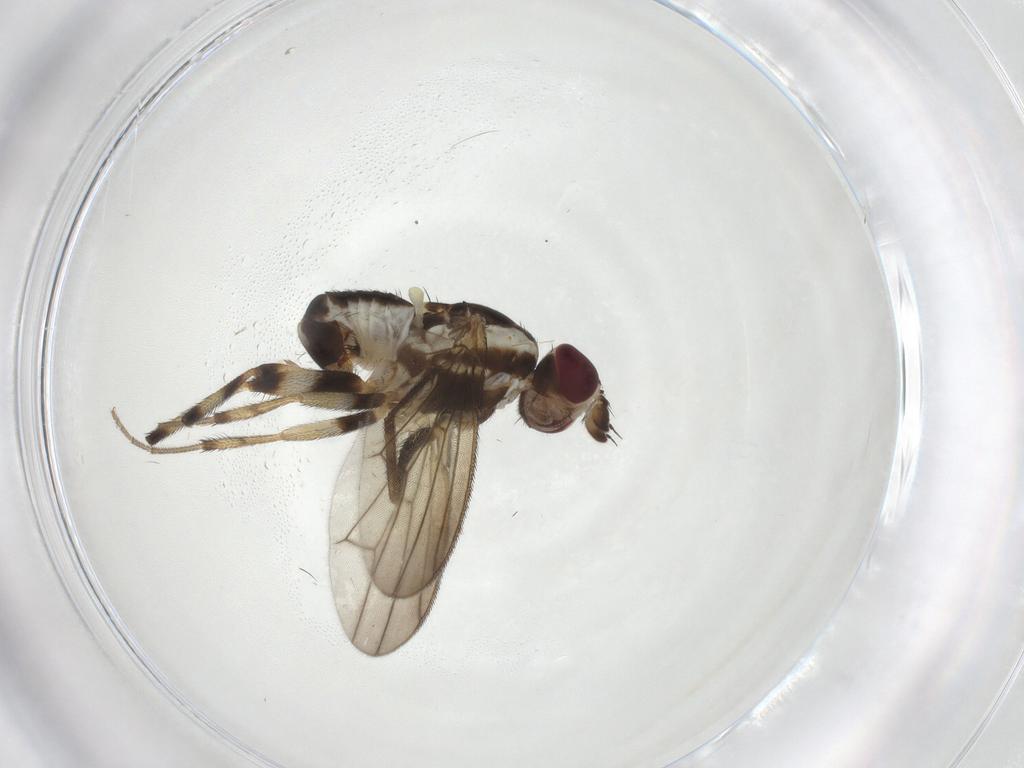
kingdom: Animalia
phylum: Arthropoda
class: Insecta
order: Diptera
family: Pseudopomyzidae
